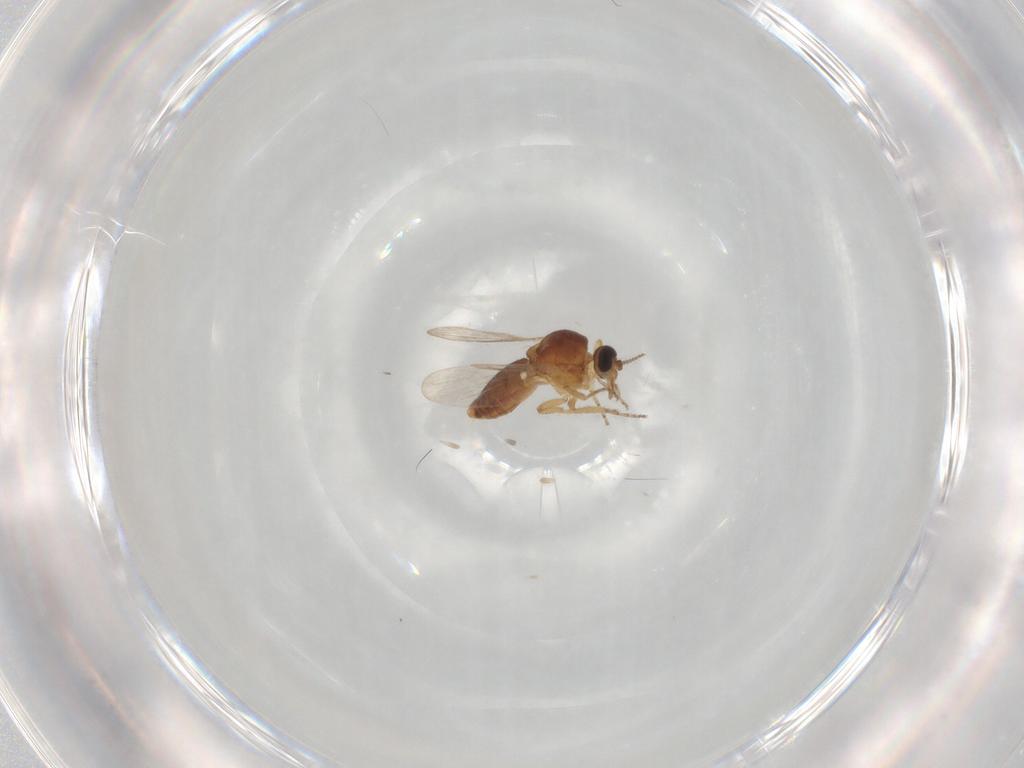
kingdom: Animalia
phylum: Arthropoda
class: Insecta
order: Diptera
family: Ceratopogonidae
